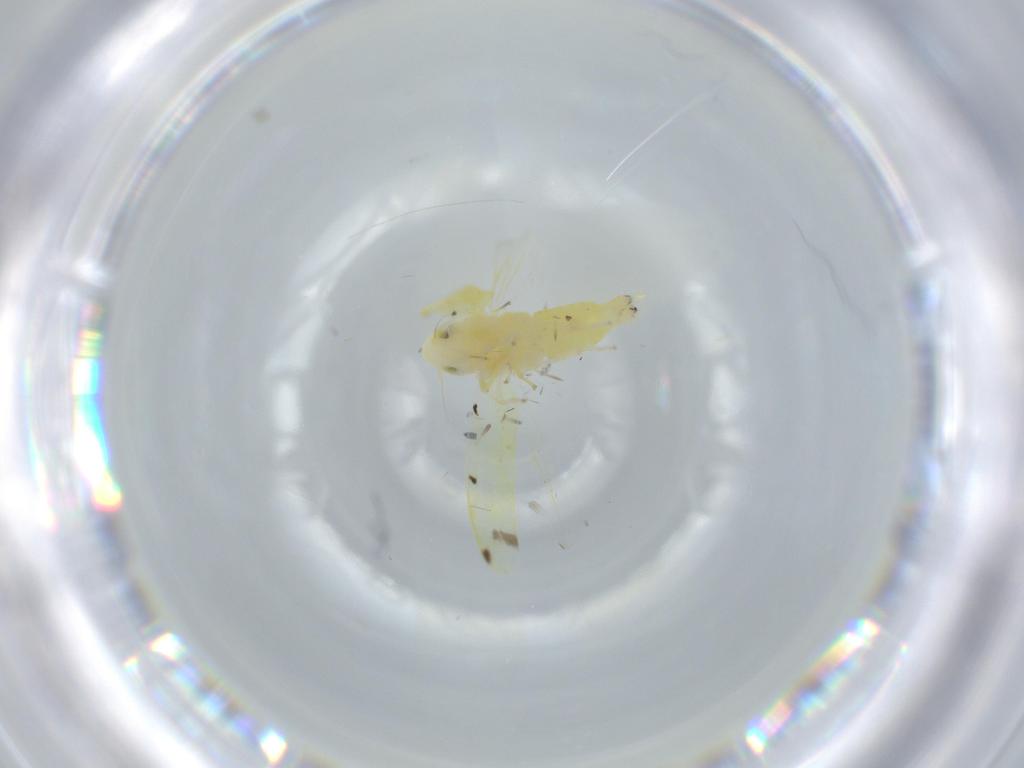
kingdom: Animalia
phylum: Arthropoda
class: Insecta
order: Hemiptera
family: Cicadellidae
